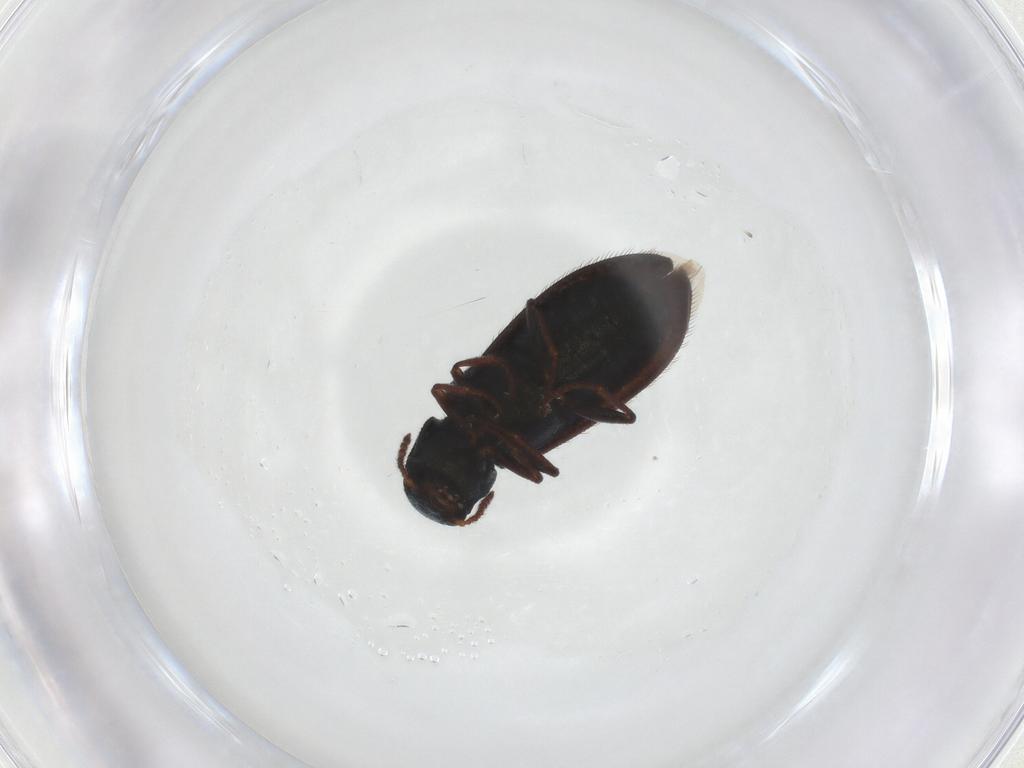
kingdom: Animalia
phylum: Arthropoda
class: Insecta
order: Coleoptera
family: Melyridae
